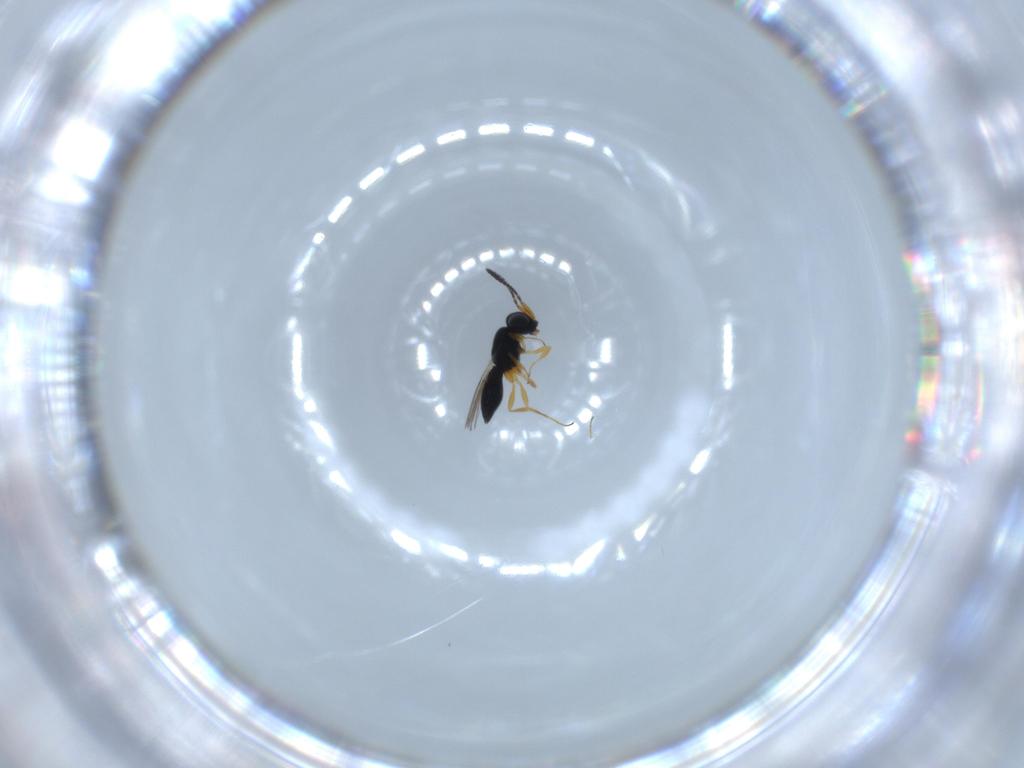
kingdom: Animalia
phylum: Arthropoda
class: Insecta
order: Hymenoptera
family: Scelionidae
